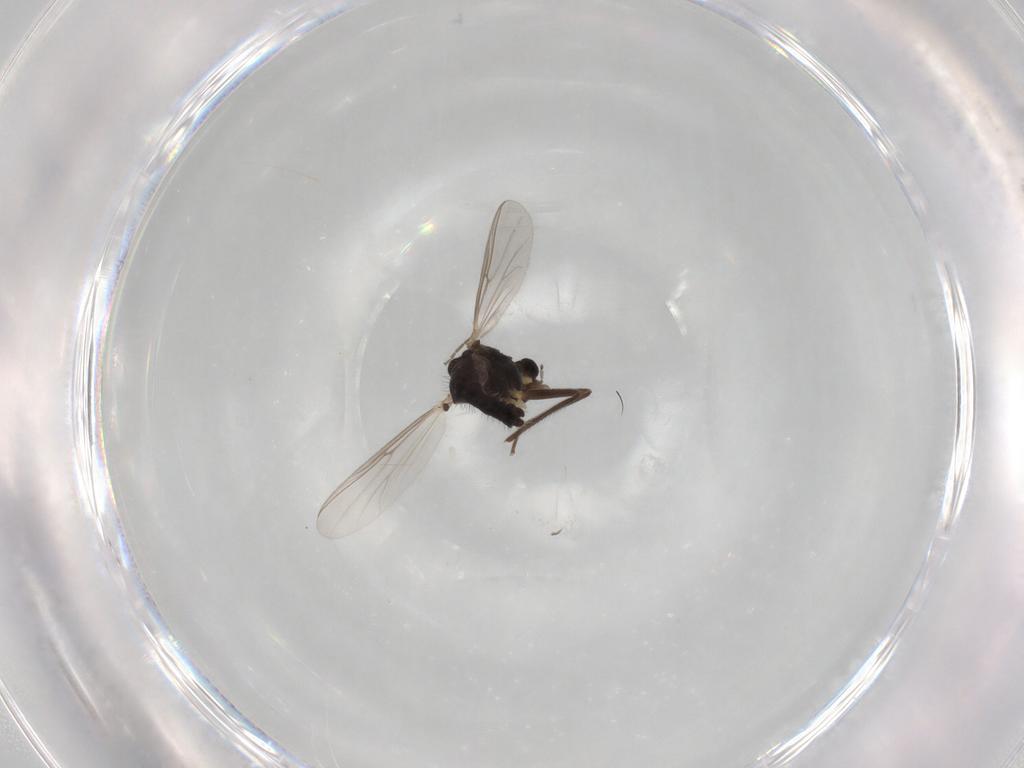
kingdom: Animalia
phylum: Arthropoda
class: Insecta
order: Diptera
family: Chironomidae
